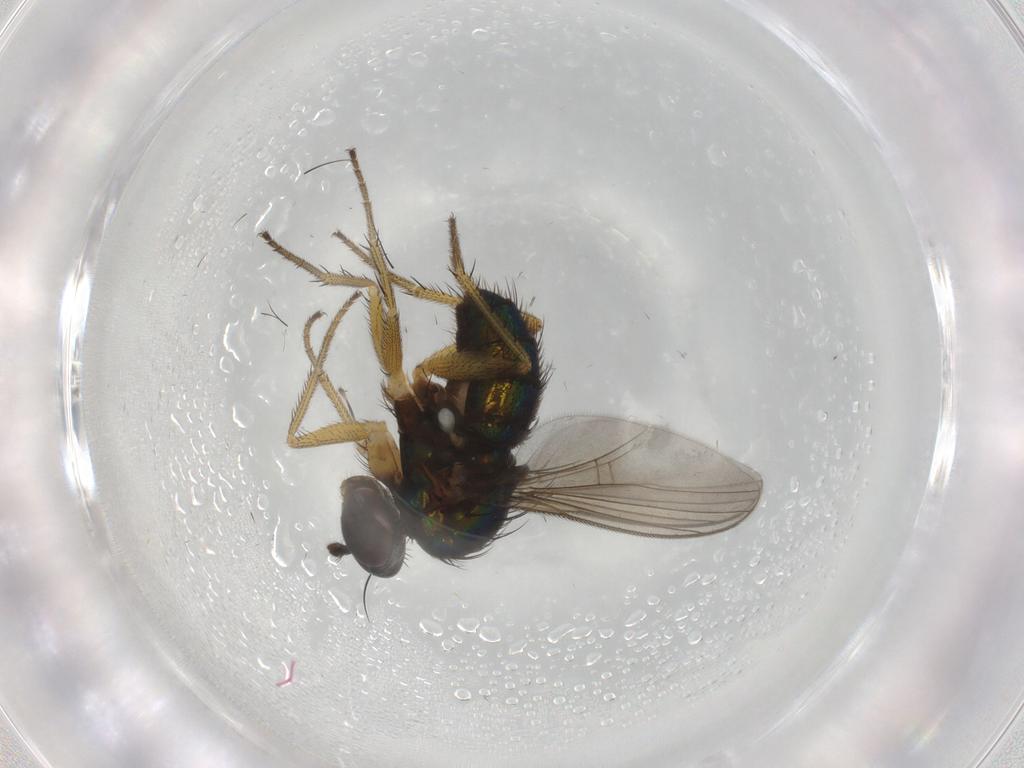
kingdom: Animalia
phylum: Arthropoda
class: Insecta
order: Diptera
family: Dolichopodidae
